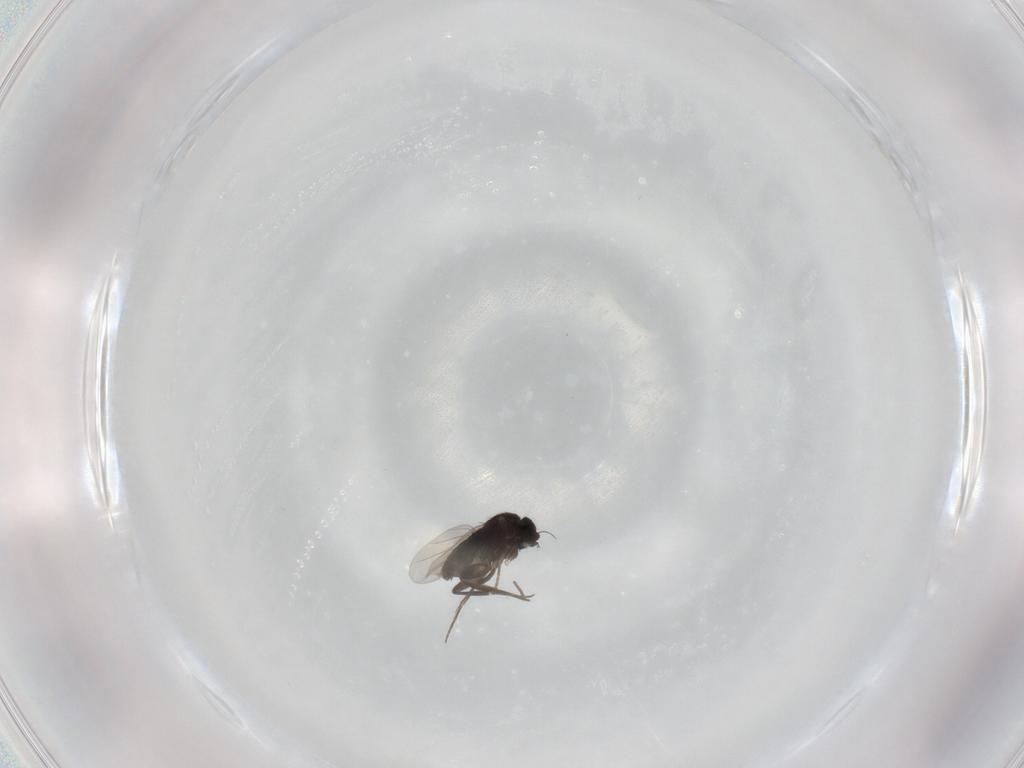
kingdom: Animalia
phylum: Arthropoda
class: Insecta
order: Diptera
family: Phoridae
